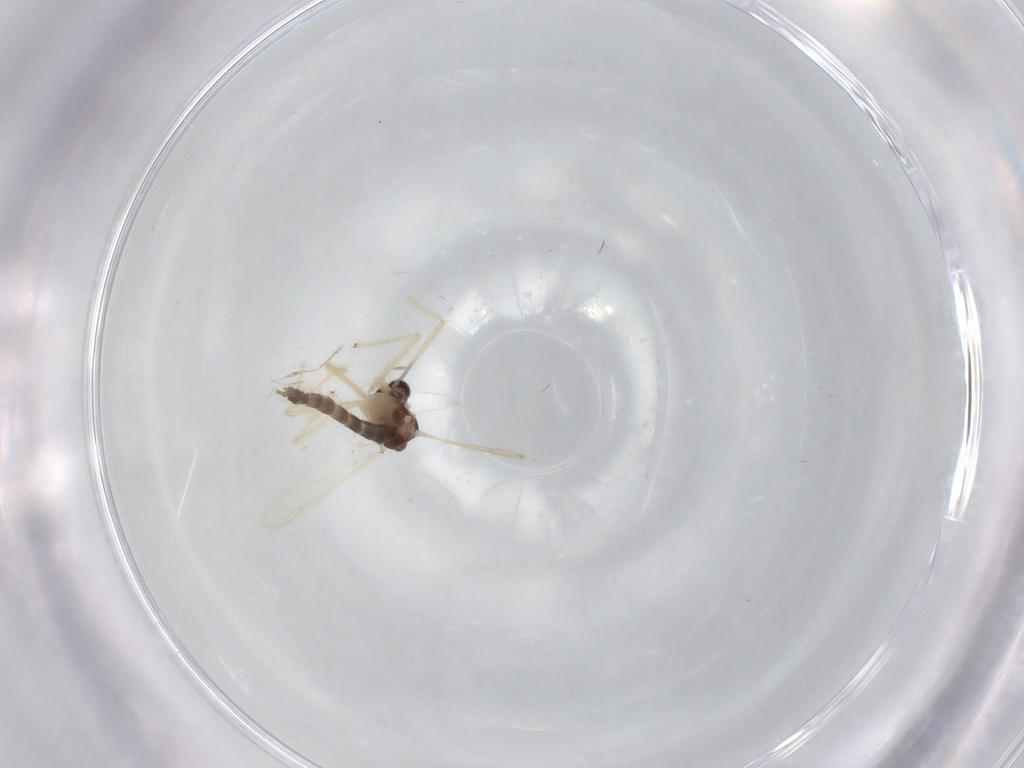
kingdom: Animalia
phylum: Arthropoda
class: Insecta
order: Diptera
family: Chironomidae
